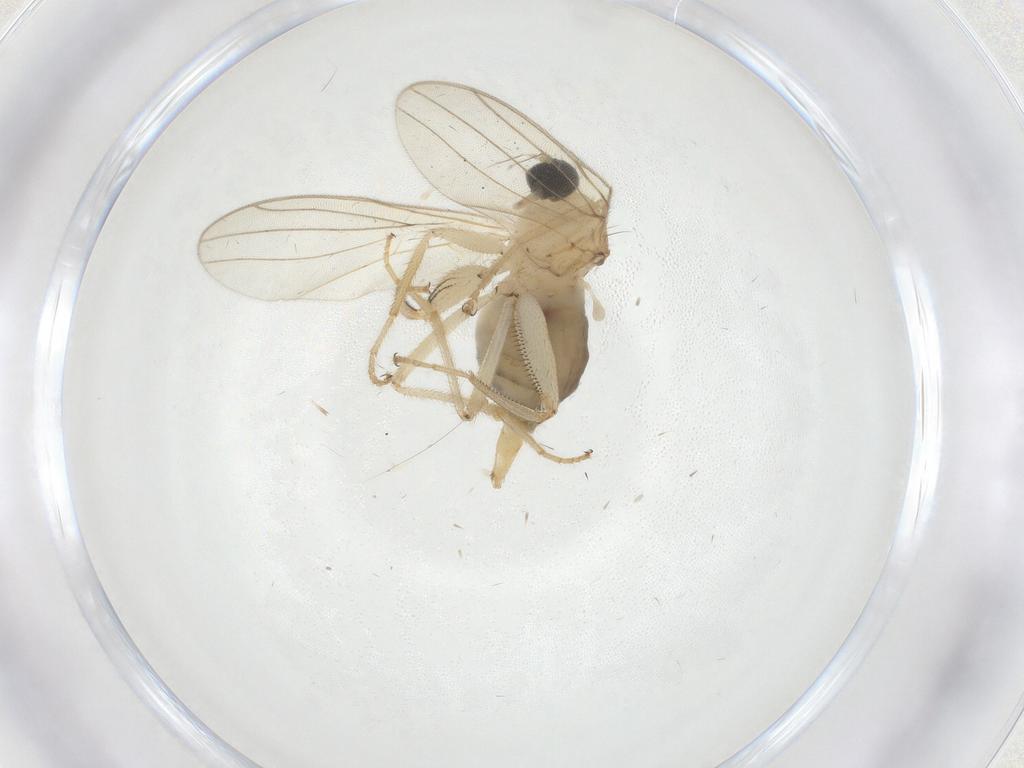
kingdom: Animalia
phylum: Arthropoda
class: Insecta
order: Diptera
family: Hybotidae
